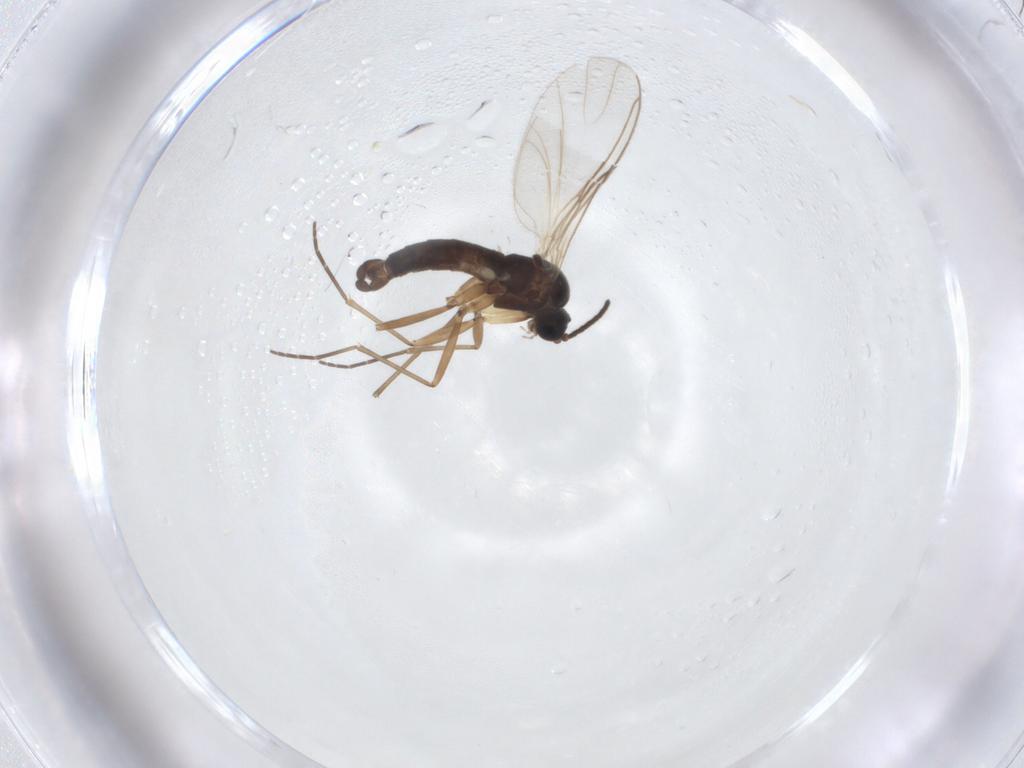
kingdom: Animalia
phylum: Arthropoda
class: Insecta
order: Diptera
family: Sciaridae
